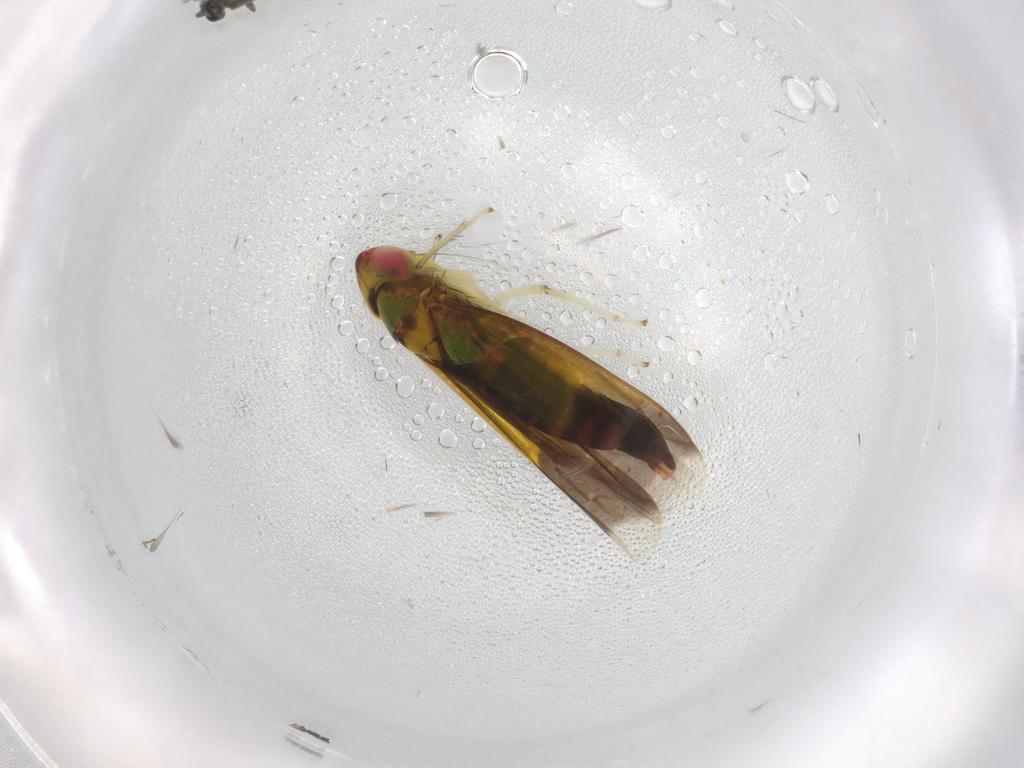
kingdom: Animalia
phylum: Arthropoda
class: Insecta
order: Hemiptera
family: Cicadellidae
